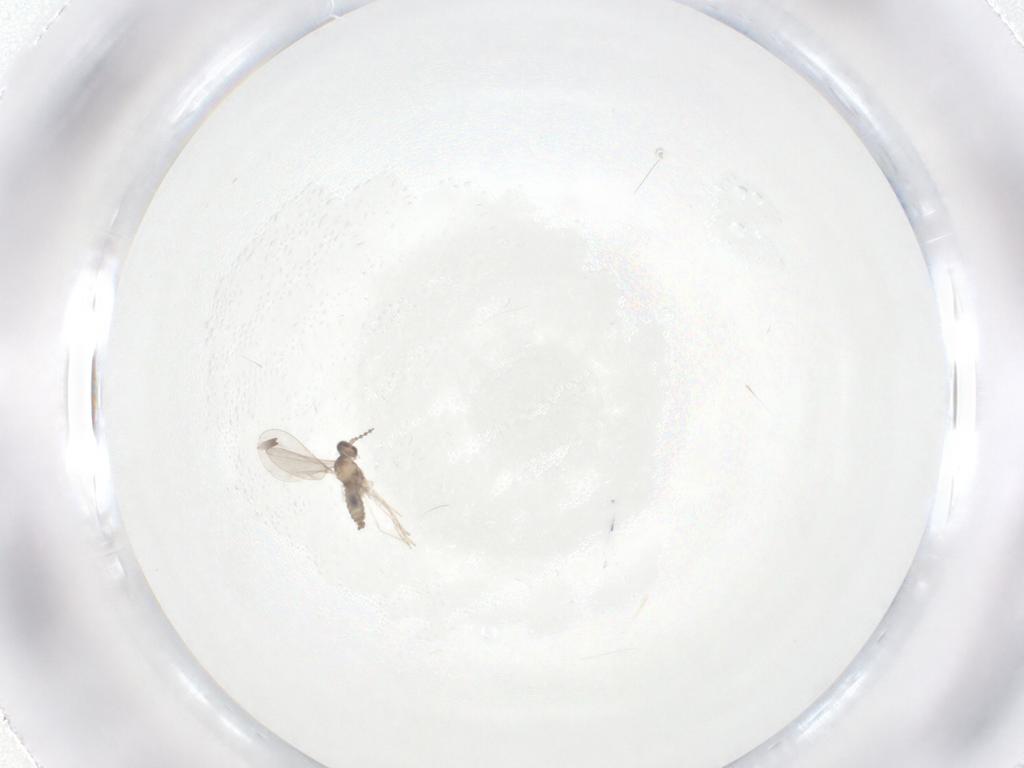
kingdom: Animalia
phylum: Arthropoda
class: Insecta
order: Diptera
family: Cecidomyiidae
